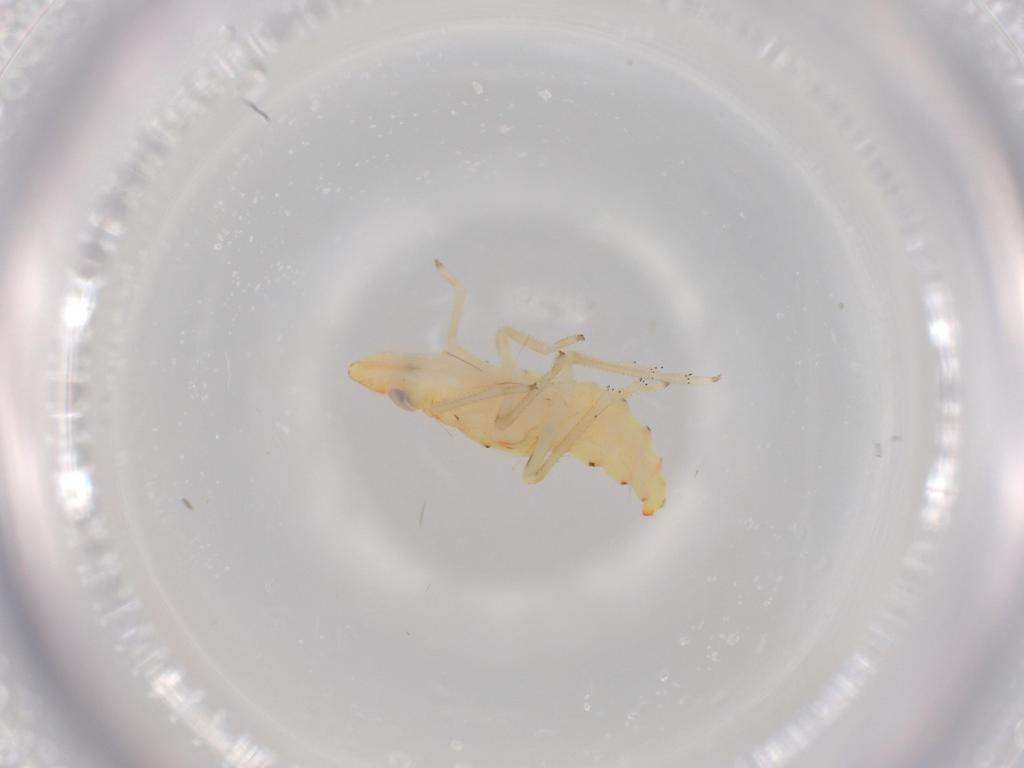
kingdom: Animalia
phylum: Arthropoda
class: Insecta
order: Hemiptera
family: Tropiduchidae
